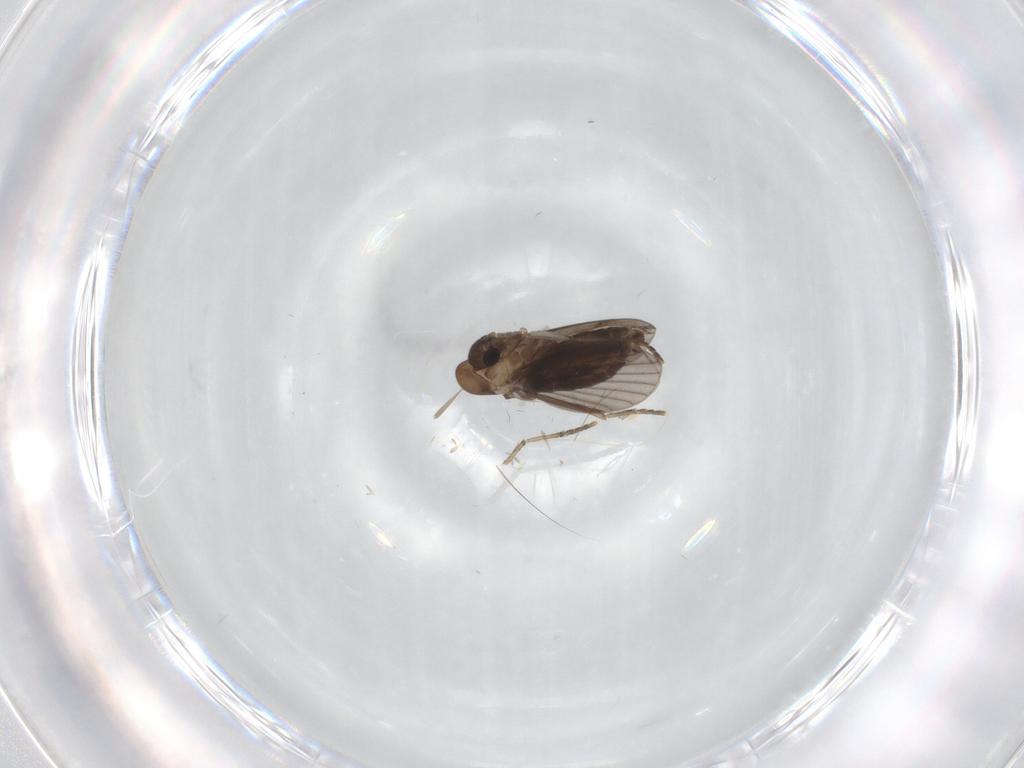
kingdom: Animalia
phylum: Arthropoda
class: Insecta
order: Diptera
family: Psychodidae
